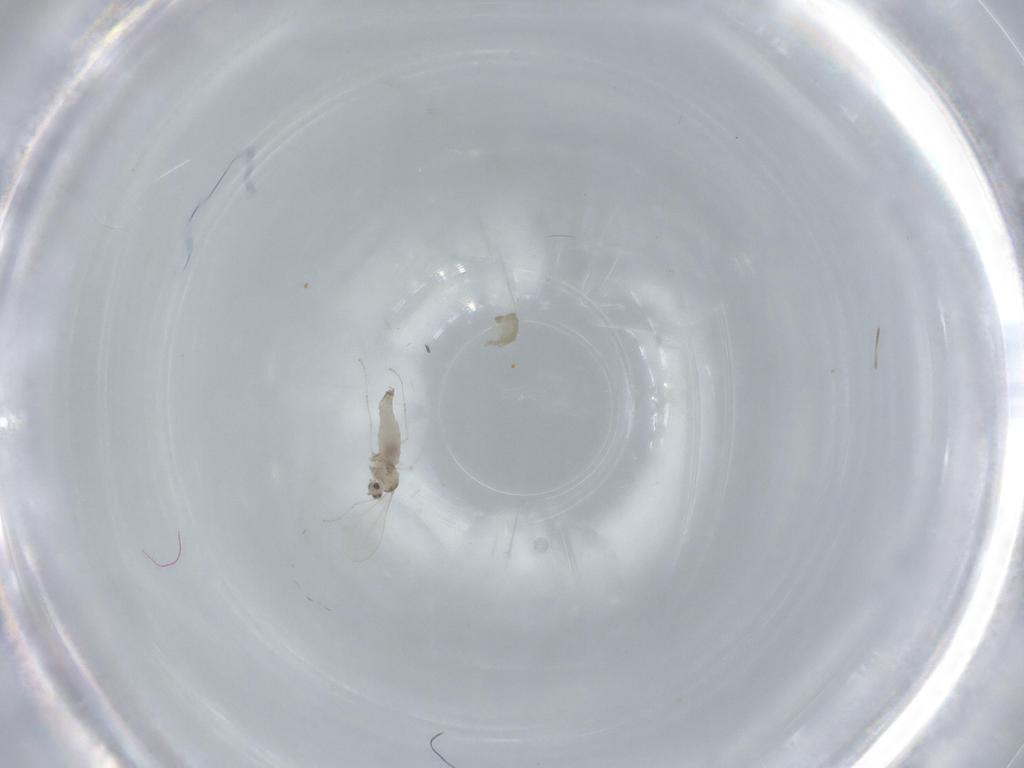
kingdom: Animalia
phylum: Arthropoda
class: Insecta
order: Diptera
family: Cecidomyiidae
